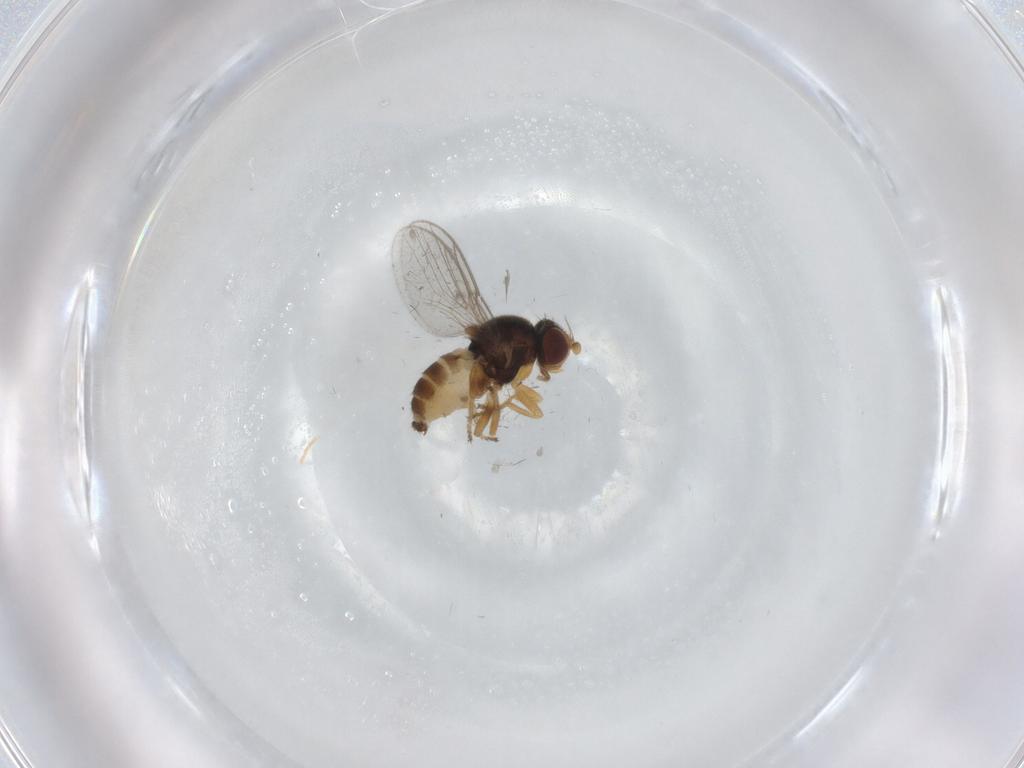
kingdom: Animalia
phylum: Arthropoda
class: Insecta
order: Diptera
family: Chloropidae
